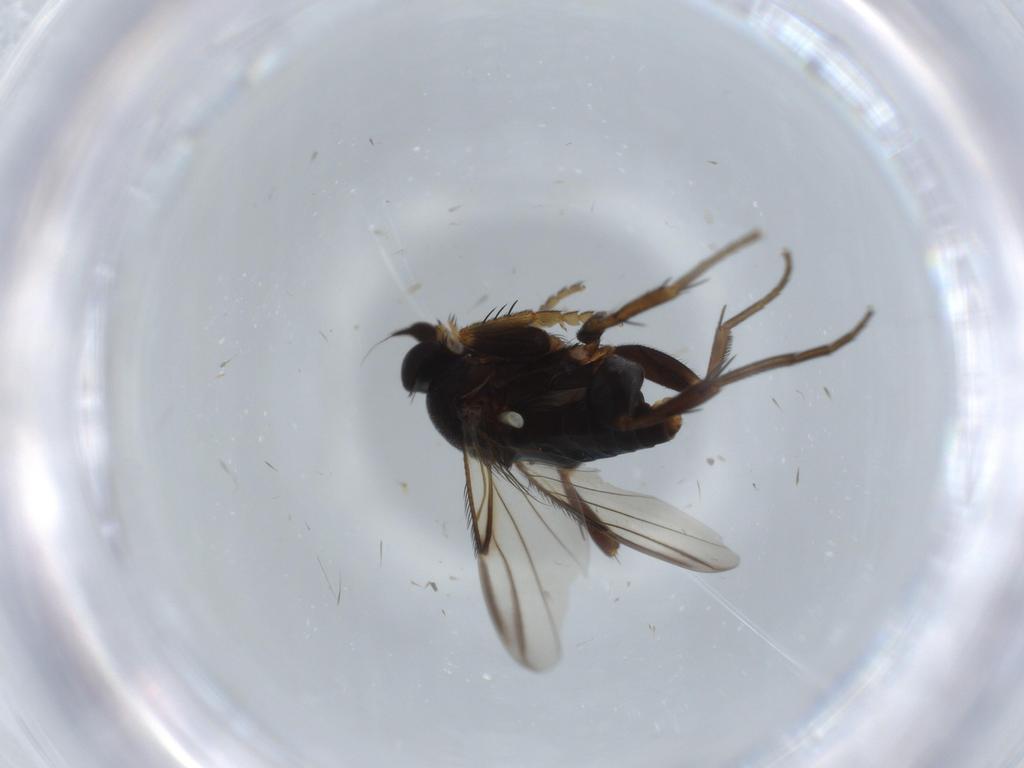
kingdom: Animalia
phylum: Arthropoda
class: Insecta
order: Diptera
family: Phoridae
